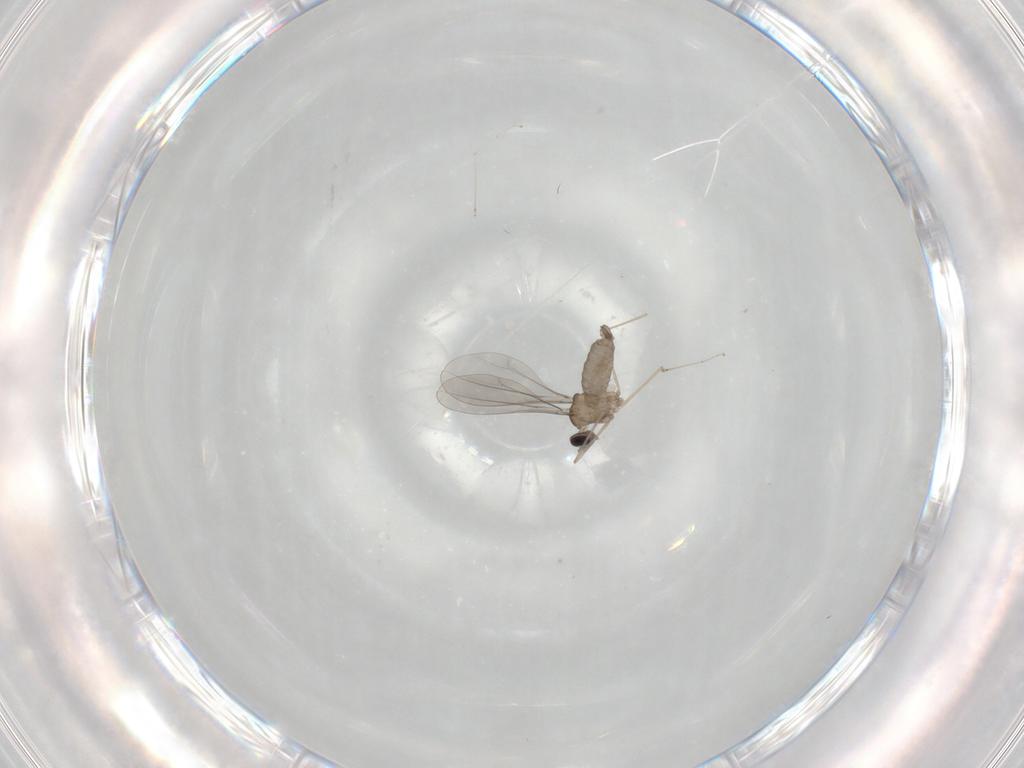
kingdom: Animalia
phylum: Arthropoda
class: Insecta
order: Diptera
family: Cecidomyiidae
